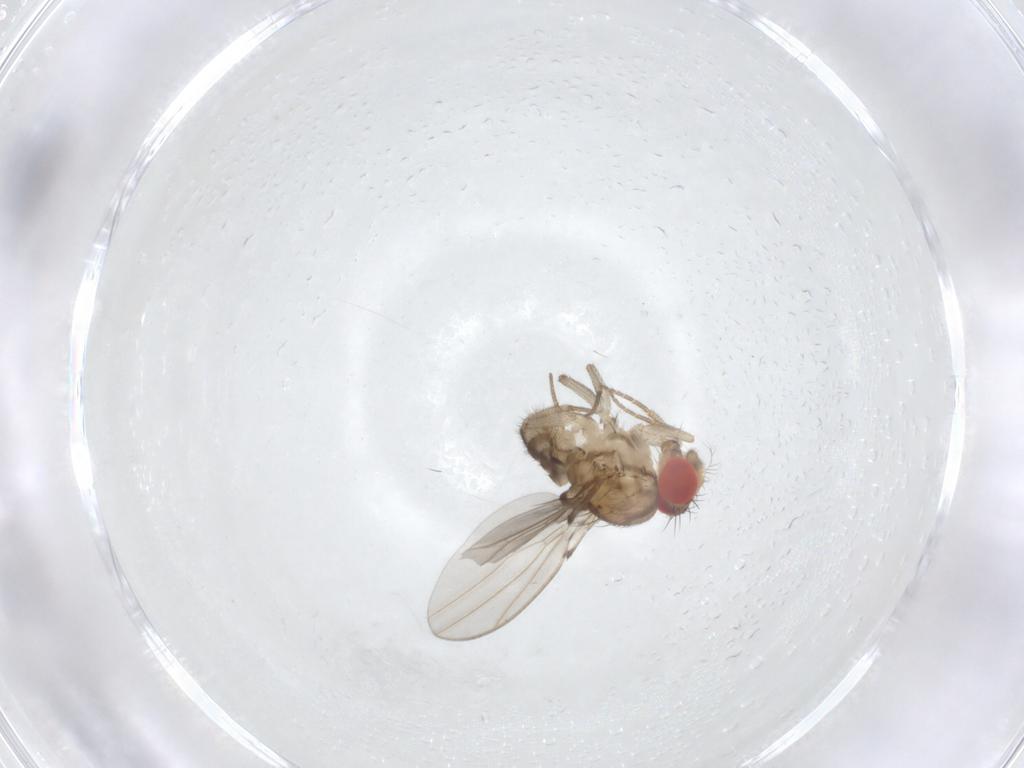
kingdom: Animalia
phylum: Arthropoda
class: Insecta
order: Diptera
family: Drosophilidae
